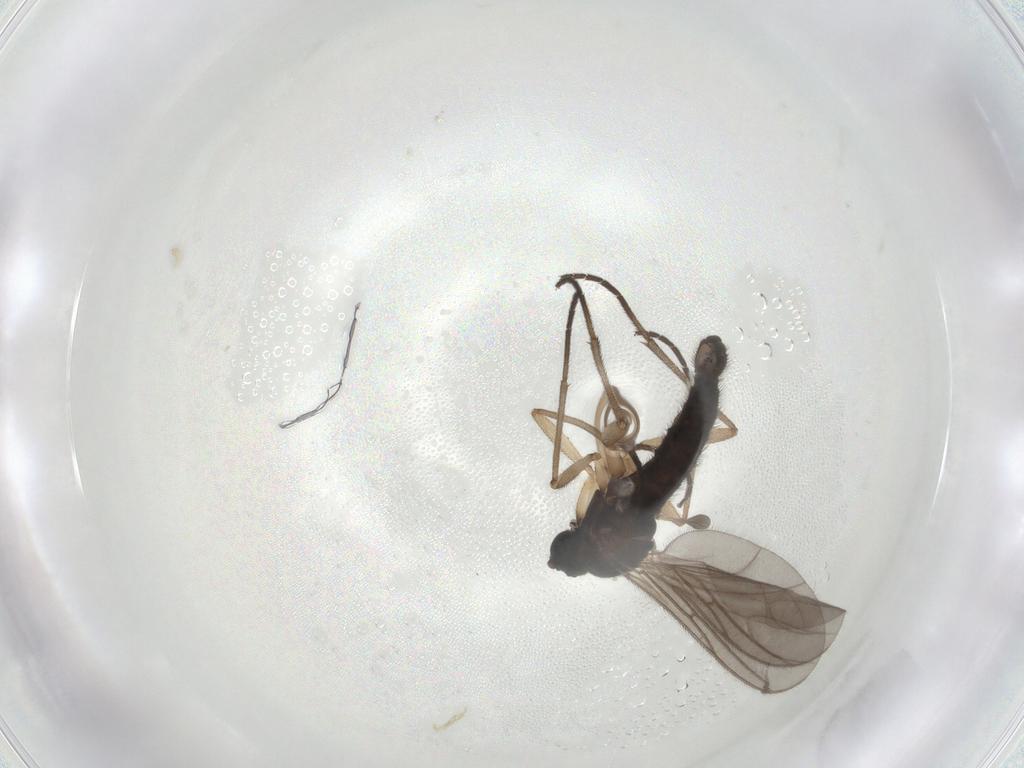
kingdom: Animalia
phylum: Arthropoda
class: Insecta
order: Diptera
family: Sciaridae
